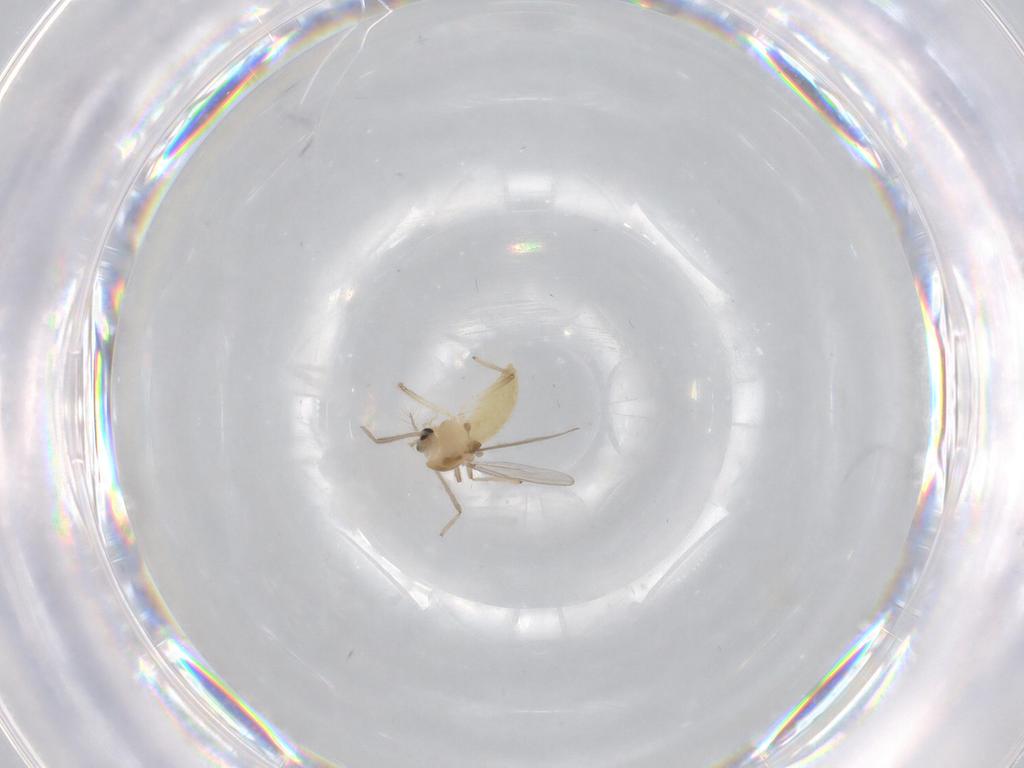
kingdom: Animalia
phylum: Arthropoda
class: Insecta
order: Diptera
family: Chironomidae
